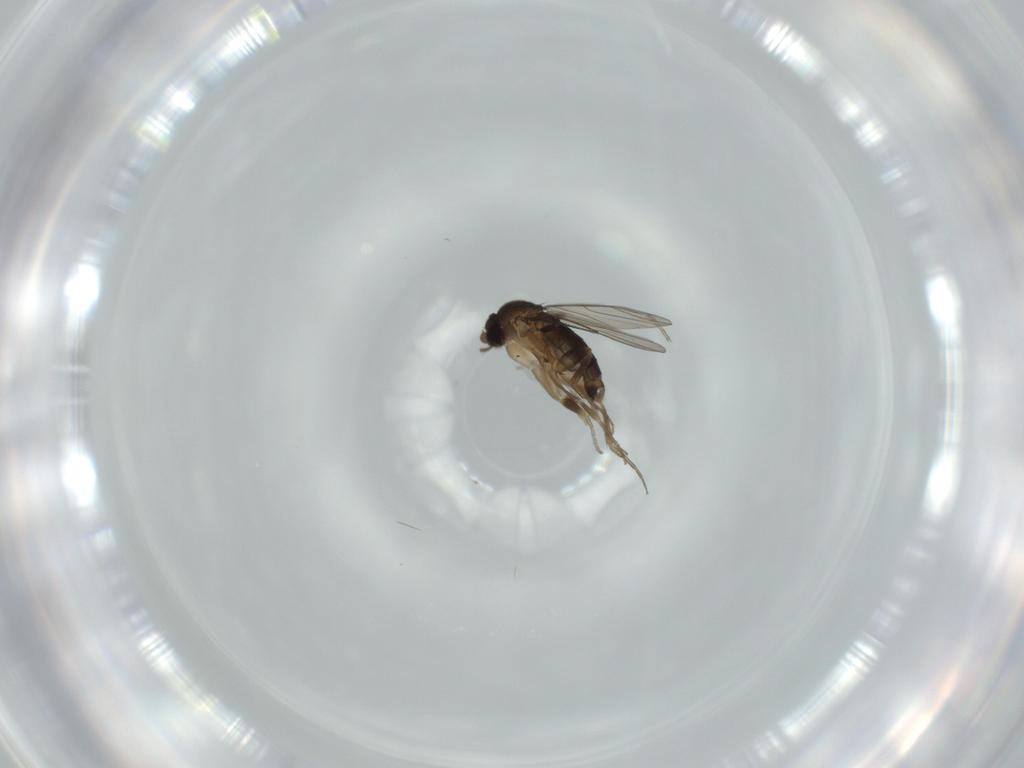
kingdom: Animalia
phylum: Arthropoda
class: Insecta
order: Diptera
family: Phoridae
